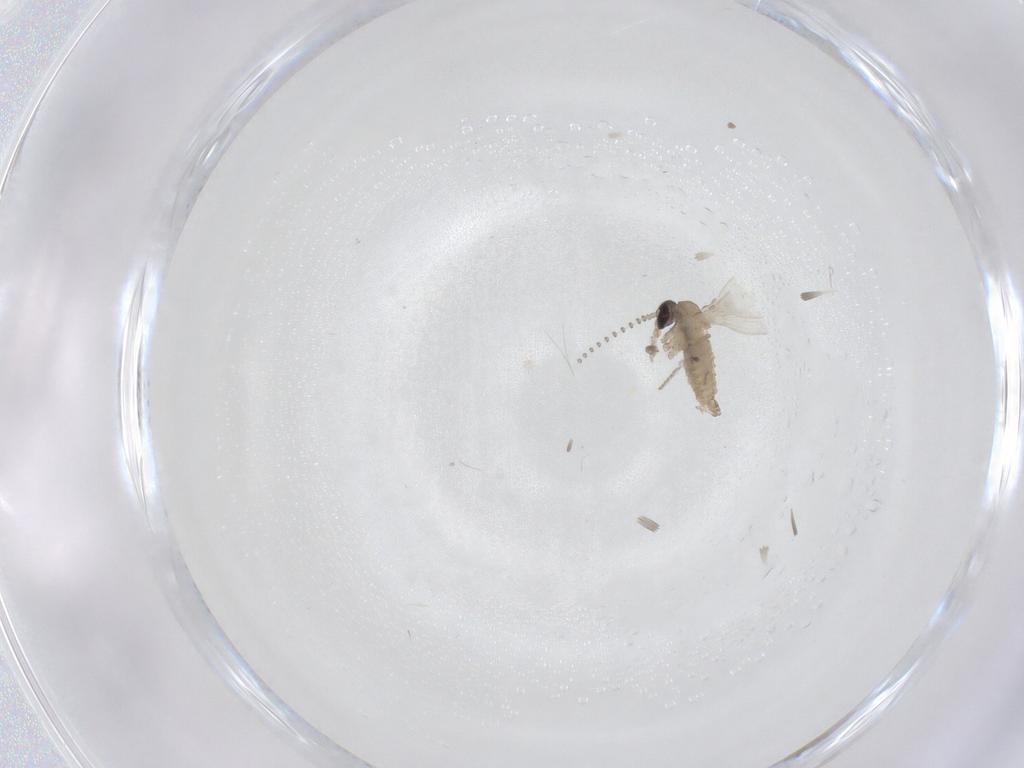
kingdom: Animalia
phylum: Arthropoda
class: Insecta
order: Diptera
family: Psychodidae
